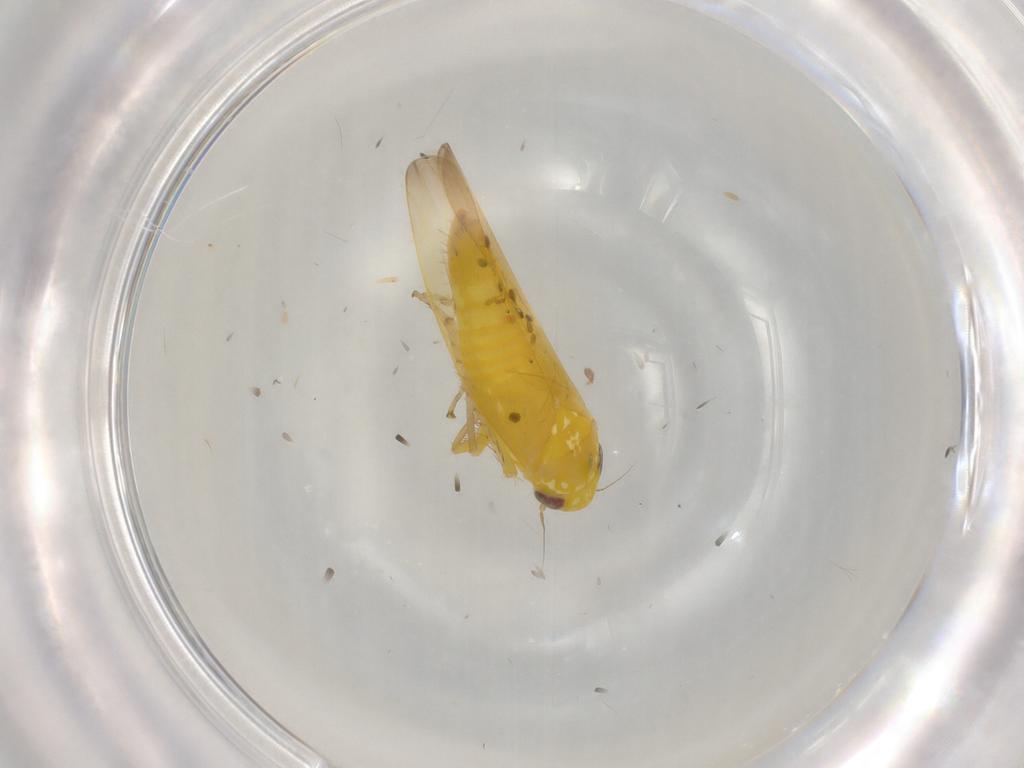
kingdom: Animalia
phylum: Arthropoda
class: Insecta
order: Hemiptera
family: Cicadellidae
